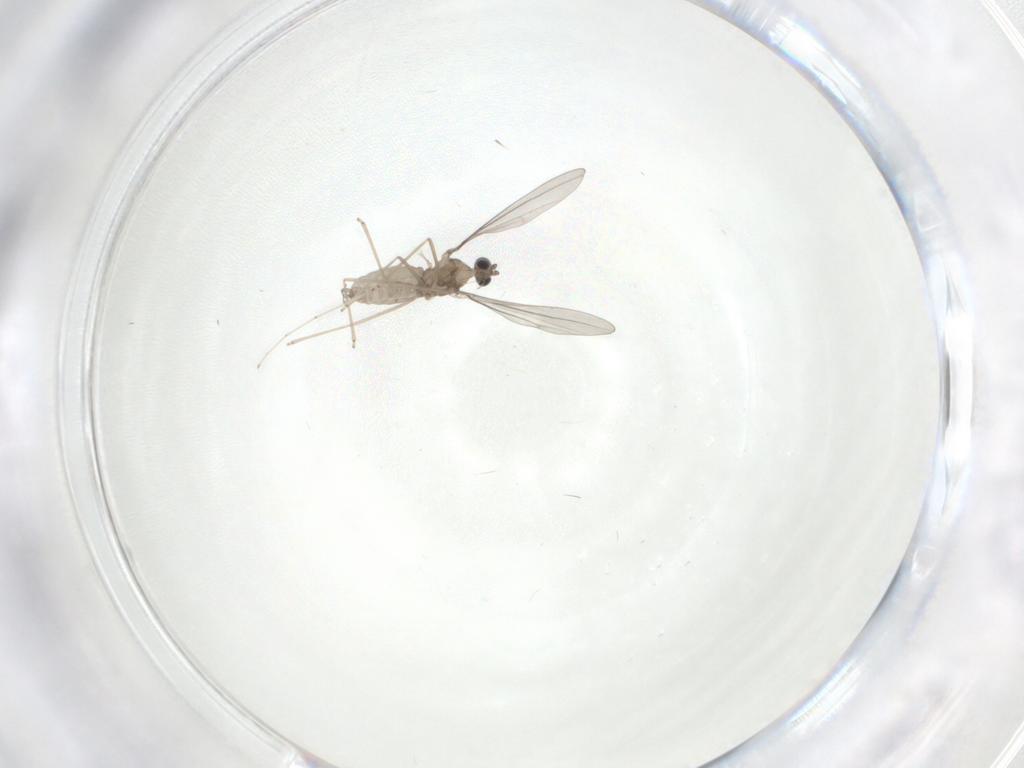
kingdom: Animalia
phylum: Arthropoda
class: Insecta
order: Diptera
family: Cecidomyiidae
